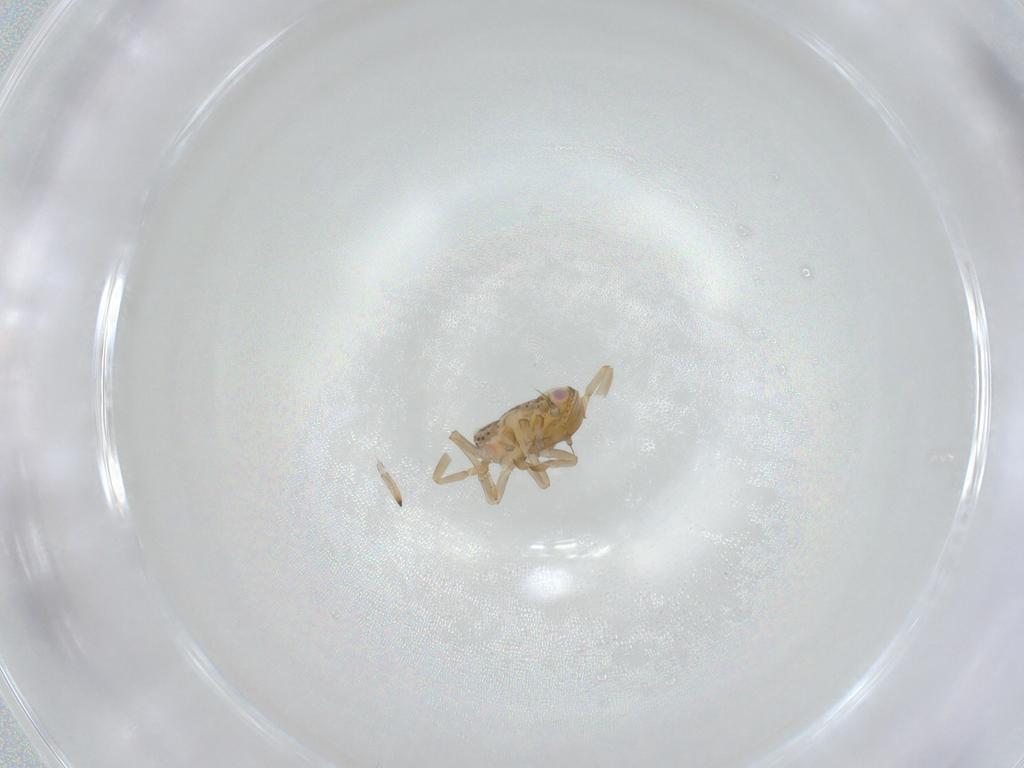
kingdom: Animalia
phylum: Arthropoda
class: Insecta
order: Hemiptera
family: Tropiduchidae
